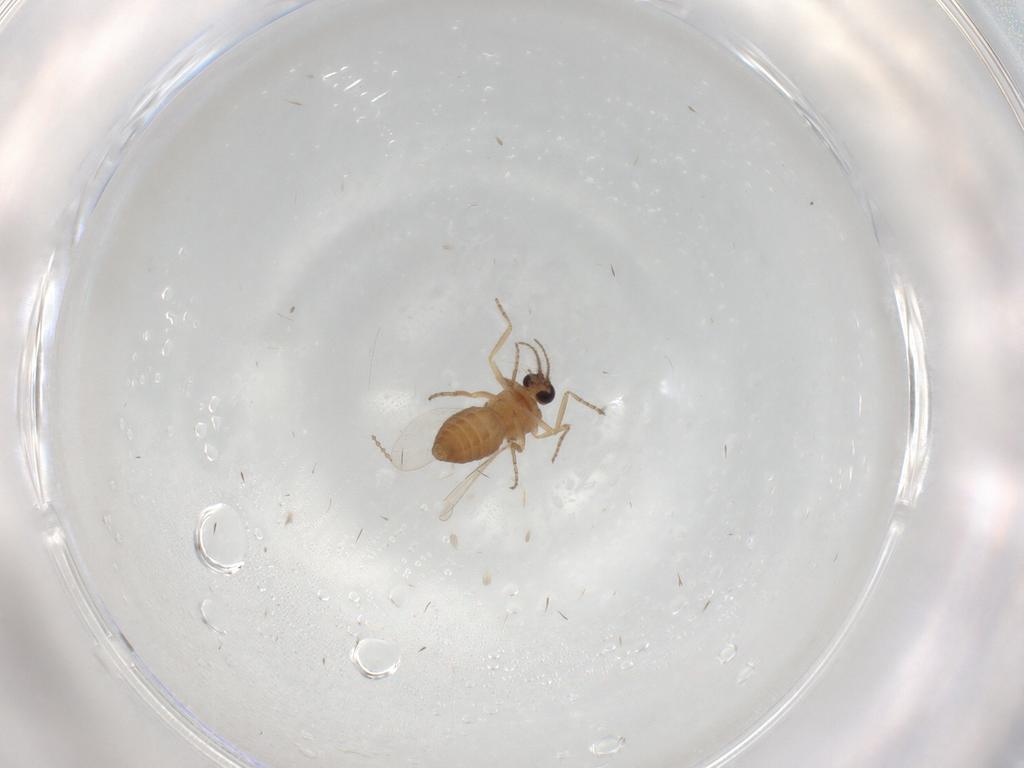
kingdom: Animalia
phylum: Arthropoda
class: Insecta
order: Diptera
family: Ceratopogonidae
